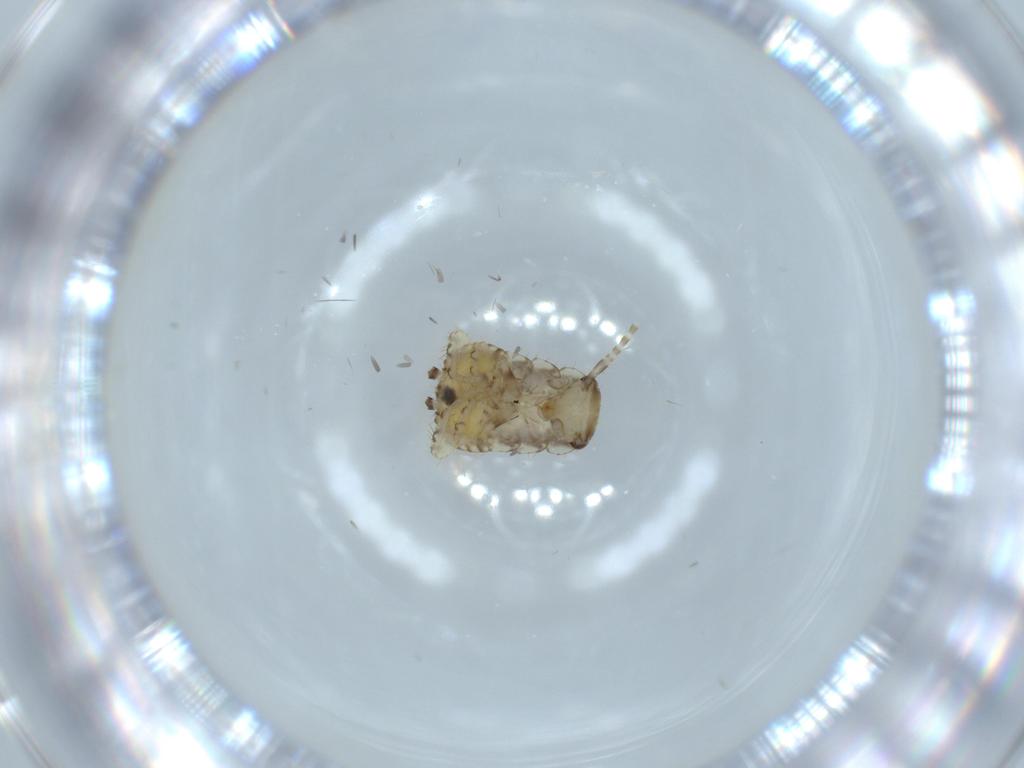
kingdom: Animalia
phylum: Arthropoda
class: Insecta
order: Blattodea
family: Ectobiidae
